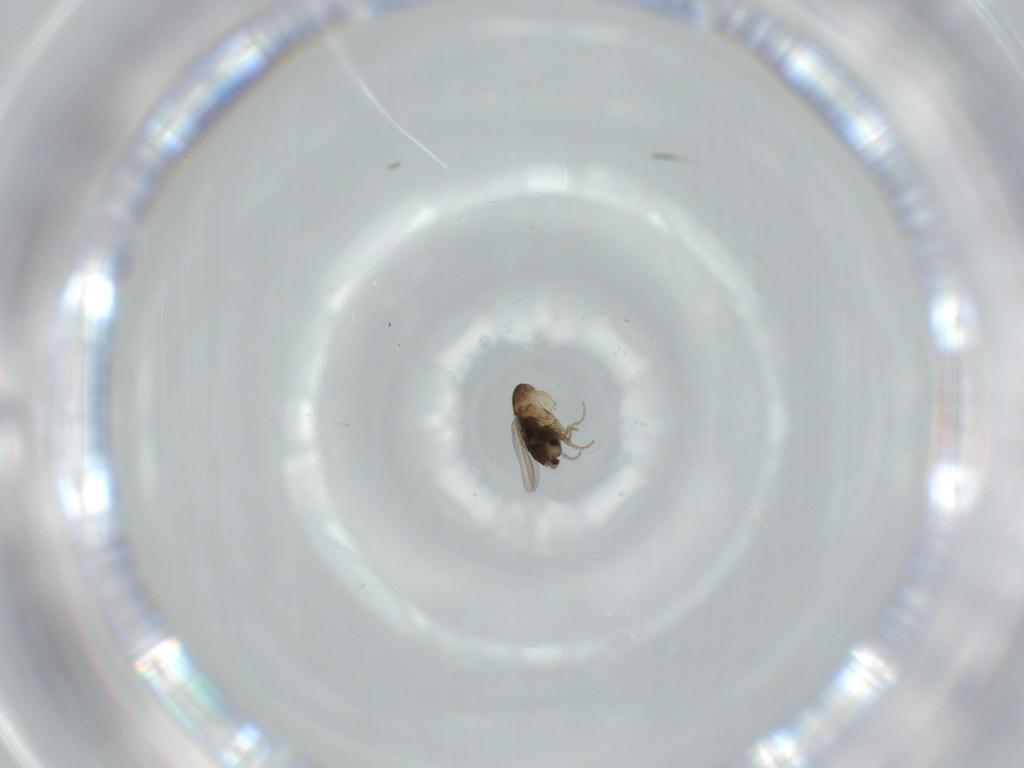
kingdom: Animalia
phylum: Arthropoda
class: Insecta
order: Diptera
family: Phoridae
